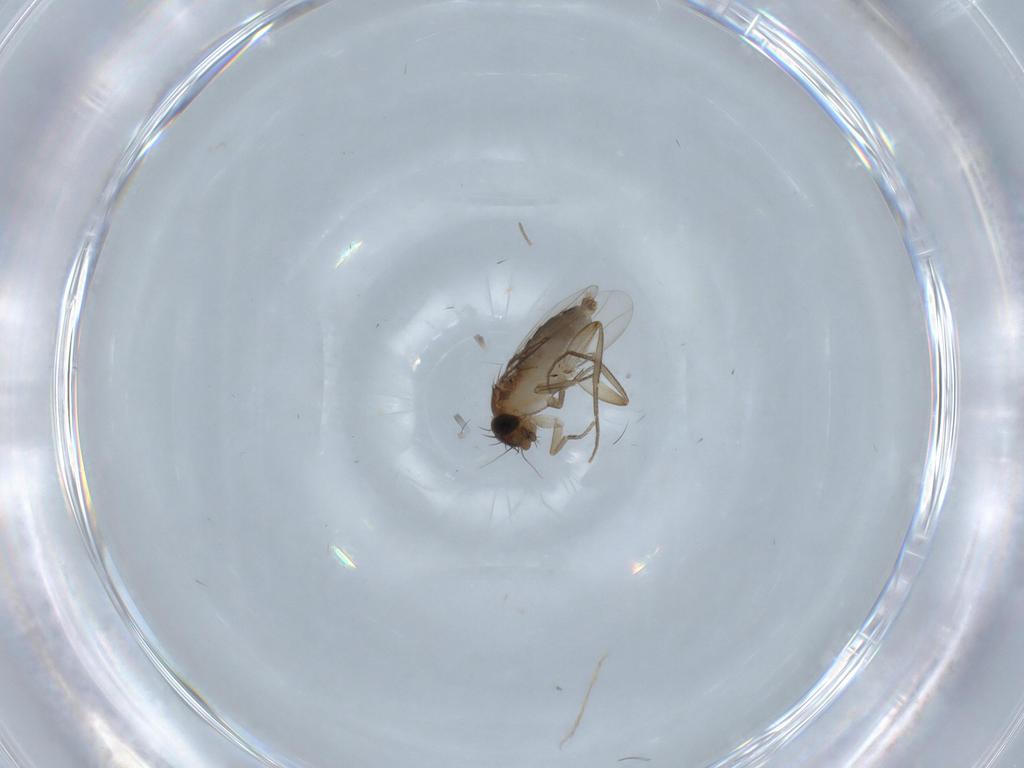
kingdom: Animalia
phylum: Arthropoda
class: Insecta
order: Diptera
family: Phoridae
